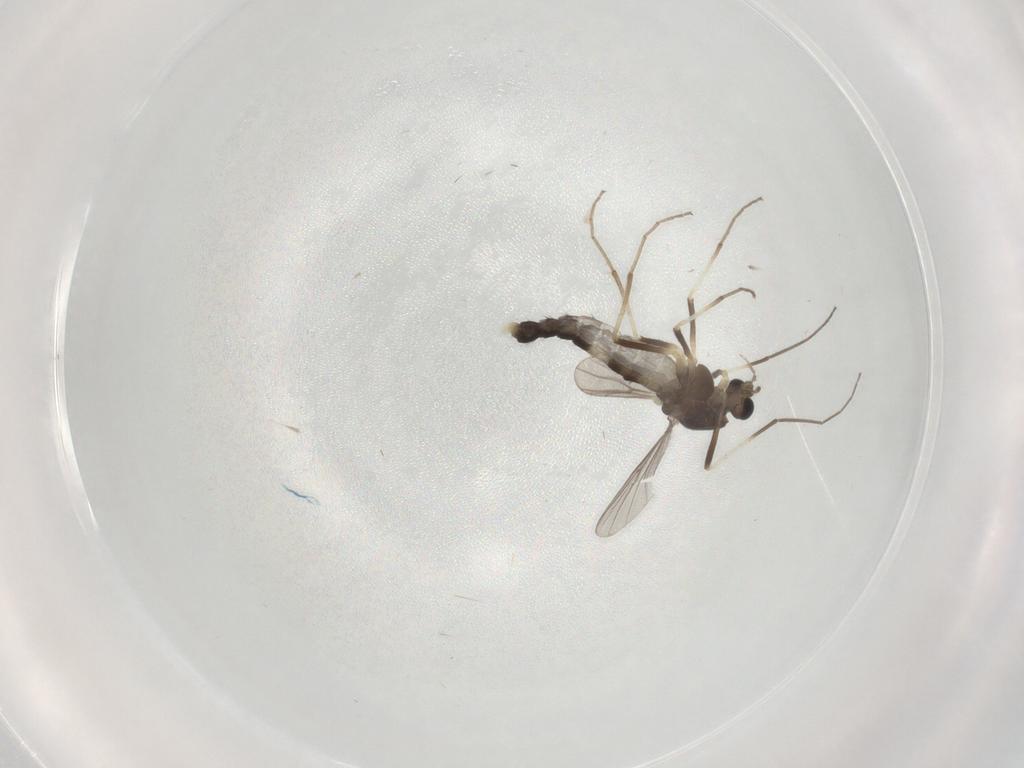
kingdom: Animalia
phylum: Arthropoda
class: Insecta
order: Diptera
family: Chironomidae
